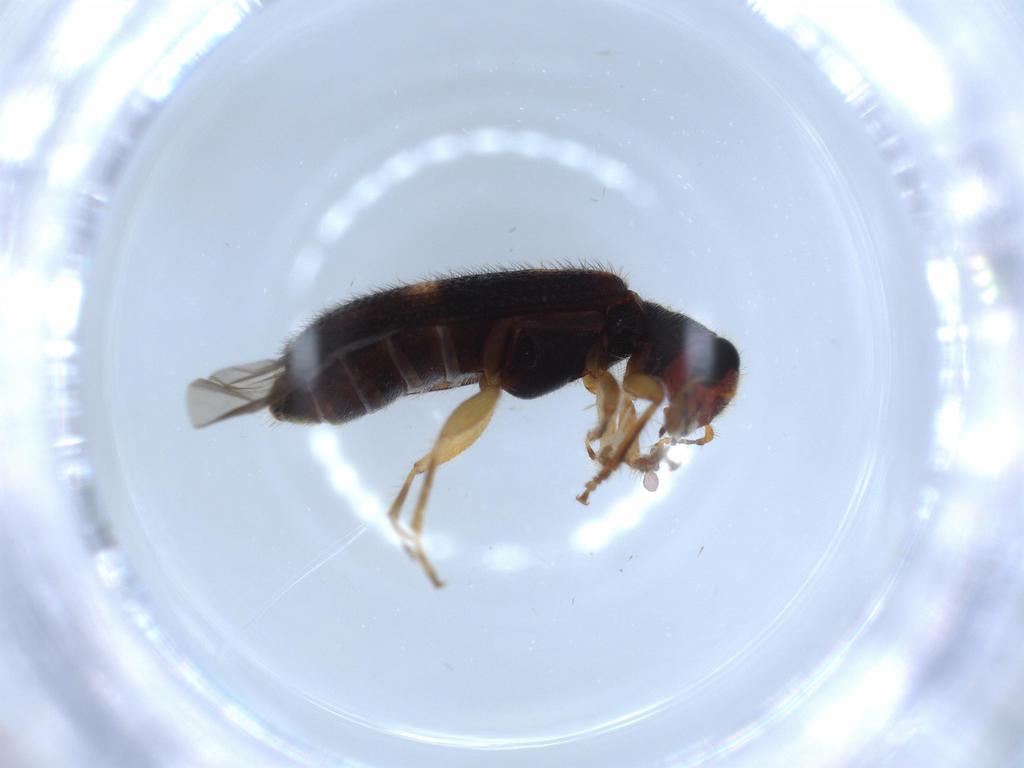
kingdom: Animalia
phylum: Arthropoda
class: Insecta
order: Coleoptera
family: Cleridae
